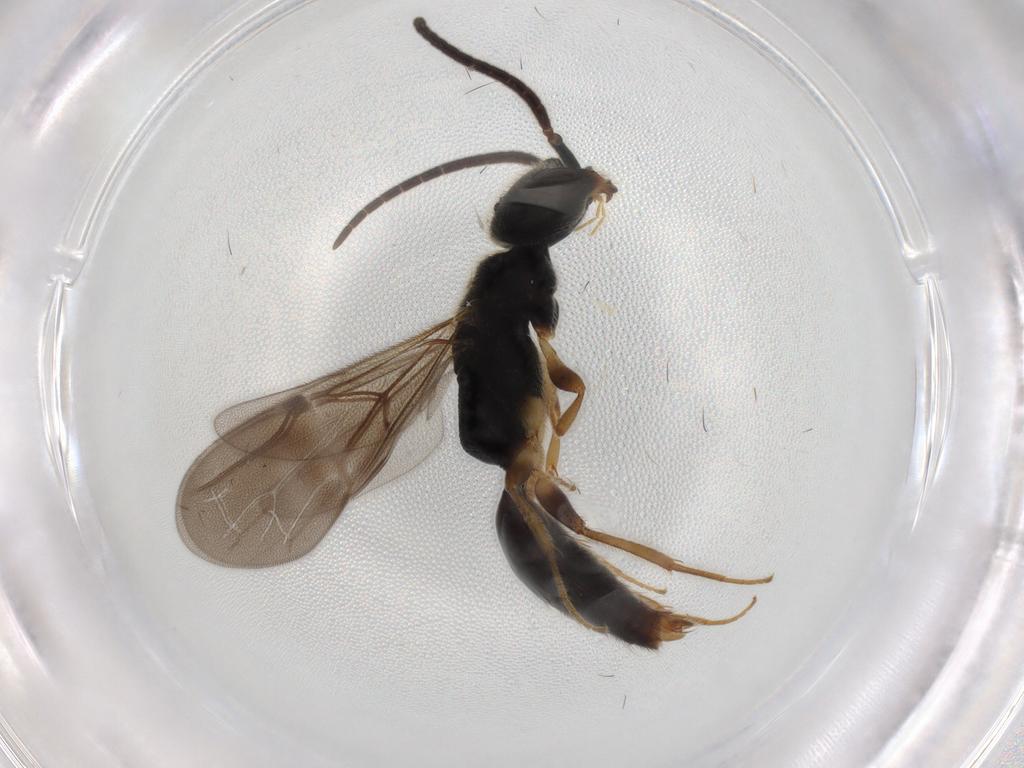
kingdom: Animalia
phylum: Arthropoda
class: Insecta
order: Hymenoptera
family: Bethylidae
